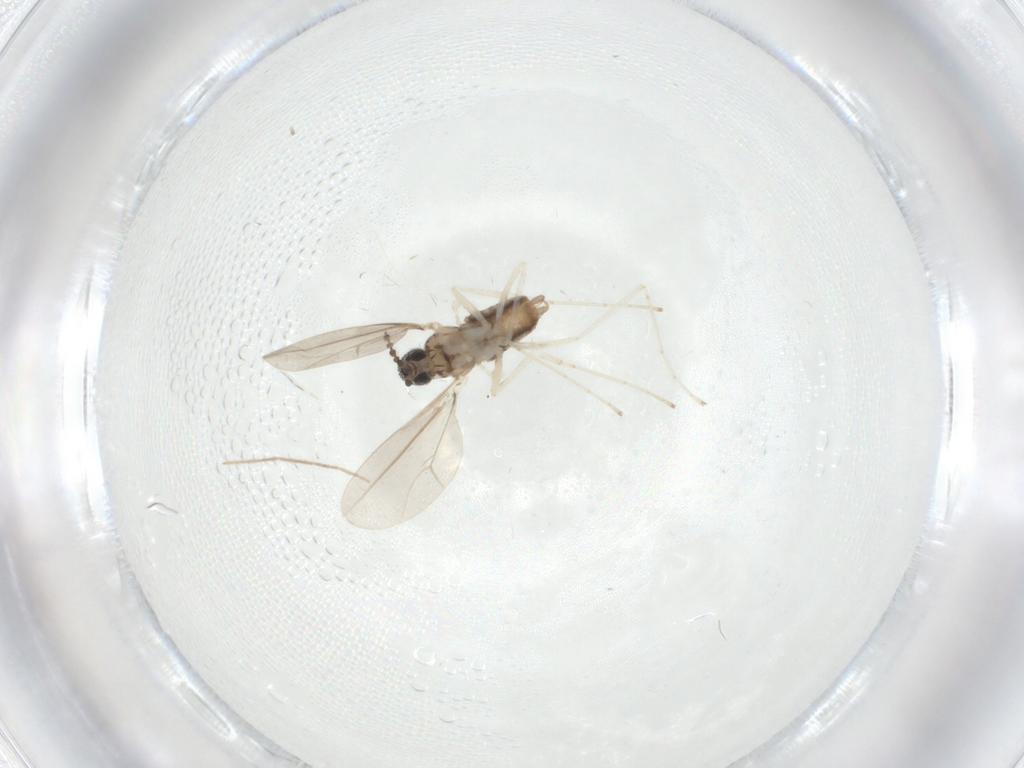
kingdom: Animalia
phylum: Arthropoda
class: Insecta
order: Diptera
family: Chironomidae
